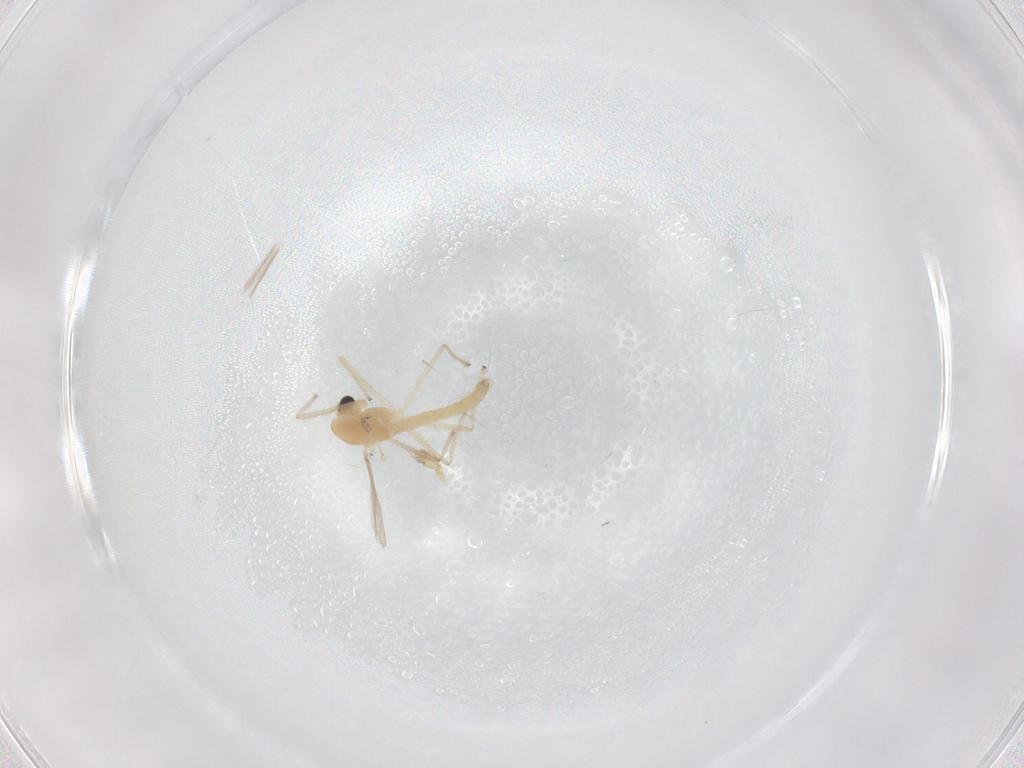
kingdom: Animalia
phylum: Arthropoda
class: Insecta
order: Diptera
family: Chironomidae
